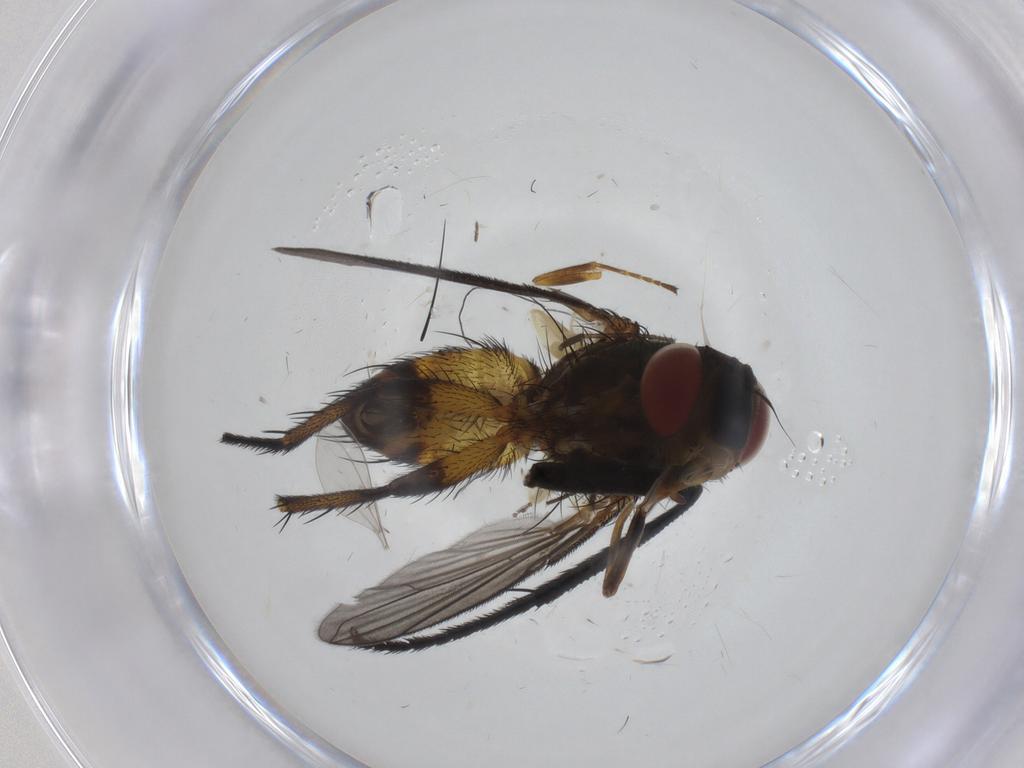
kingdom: Animalia
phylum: Arthropoda
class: Insecta
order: Diptera
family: Tachinidae
